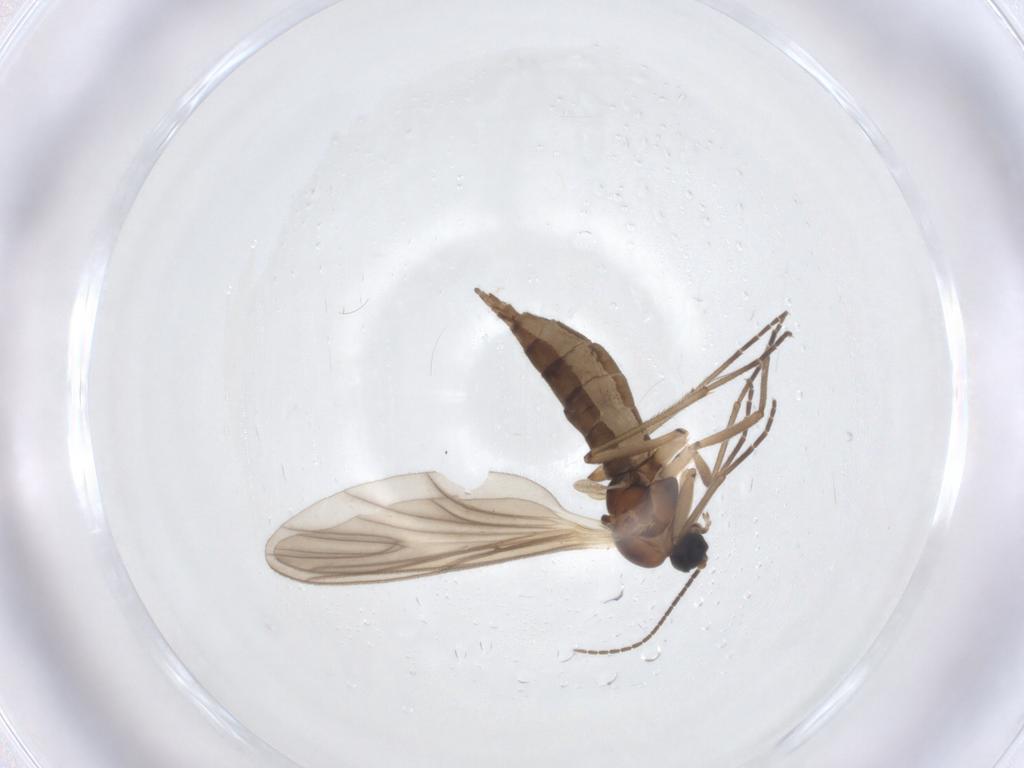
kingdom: Animalia
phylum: Arthropoda
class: Insecta
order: Diptera
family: Sciaridae
